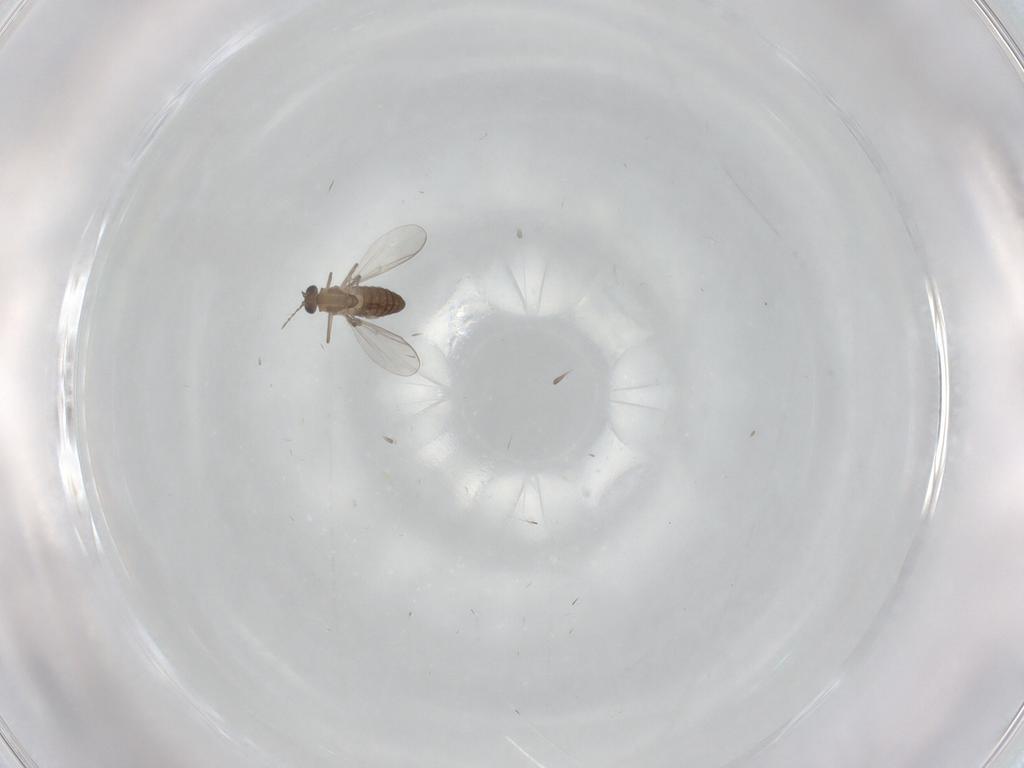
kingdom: Animalia
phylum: Arthropoda
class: Insecta
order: Diptera
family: Chironomidae
